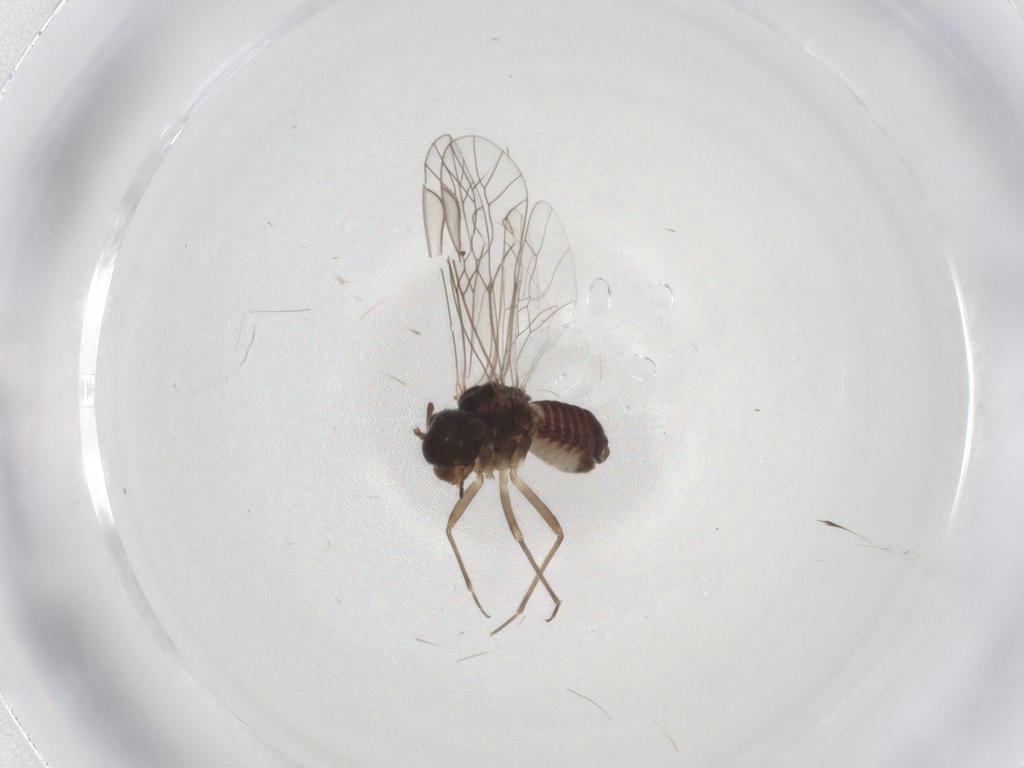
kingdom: Animalia
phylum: Arthropoda
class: Insecta
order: Psocodea
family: Lachesillidae
